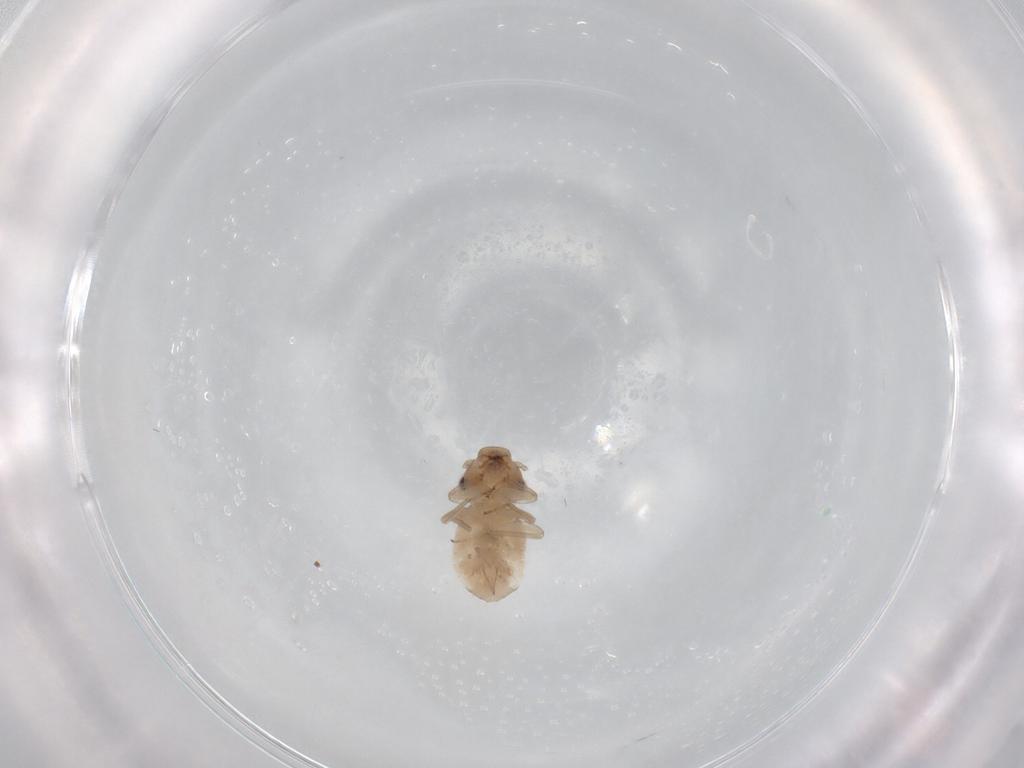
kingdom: Animalia
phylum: Arthropoda
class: Insecta
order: Psocodea
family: Trogiidae
